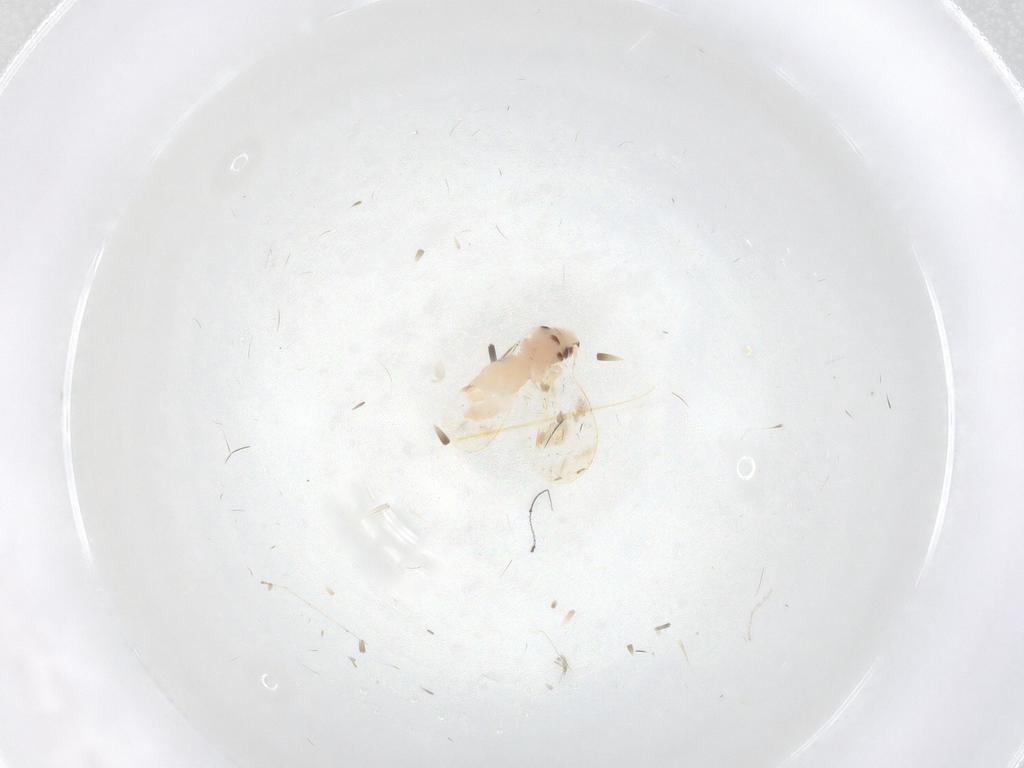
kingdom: Animalia
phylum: Arthropoda
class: Insecta
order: Hemiptera
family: Aleyrodidae
